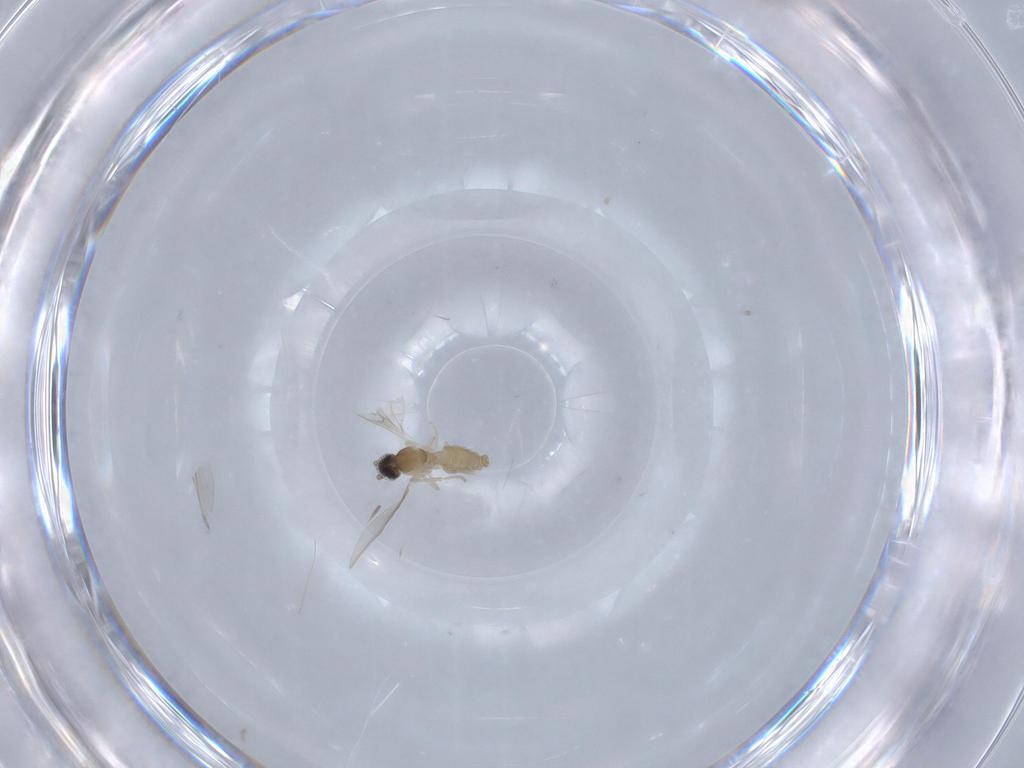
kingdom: Animalia
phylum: Arthropoda
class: Insecta
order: Diptera
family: Cecidomyiidae
